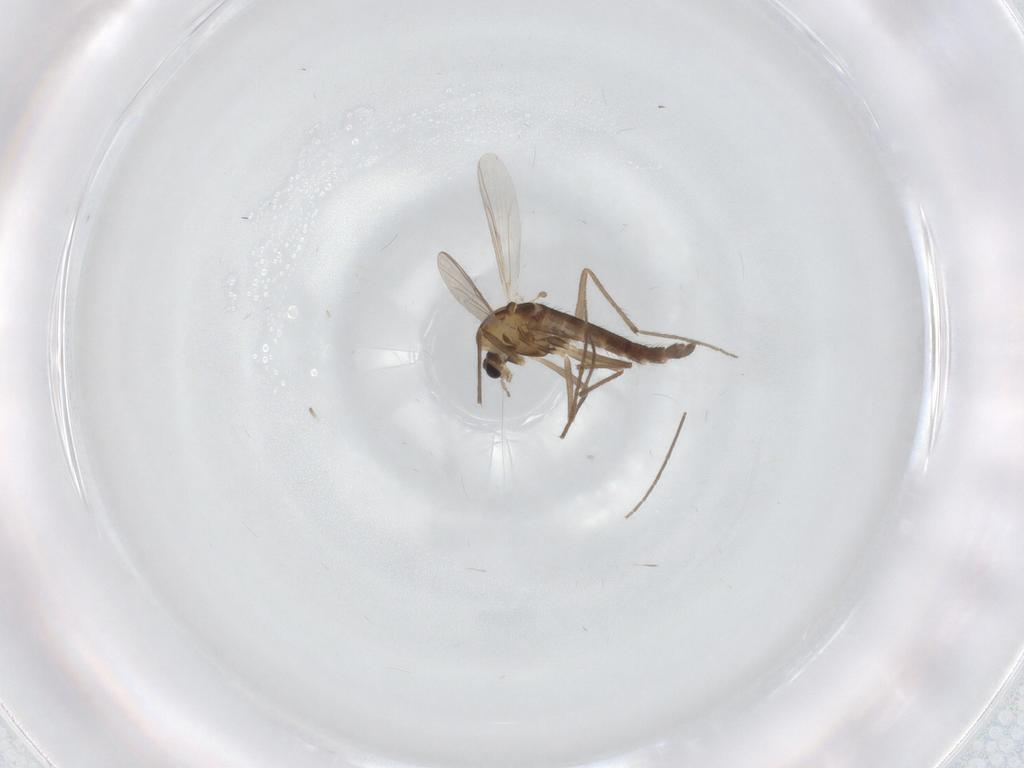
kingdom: Animalia
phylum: Arthropoda
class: Insecta
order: Diptera
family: Chironomidae
